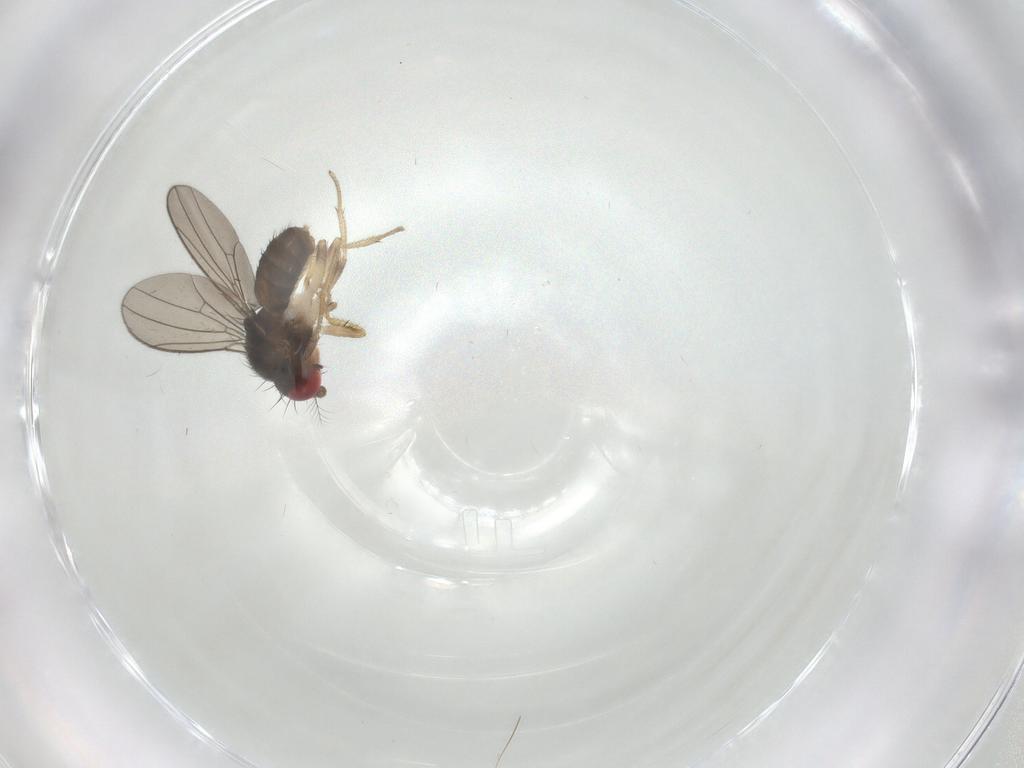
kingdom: Animalia
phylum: Arthropoda
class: Insecta
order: Diptera
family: Drosophilidae
